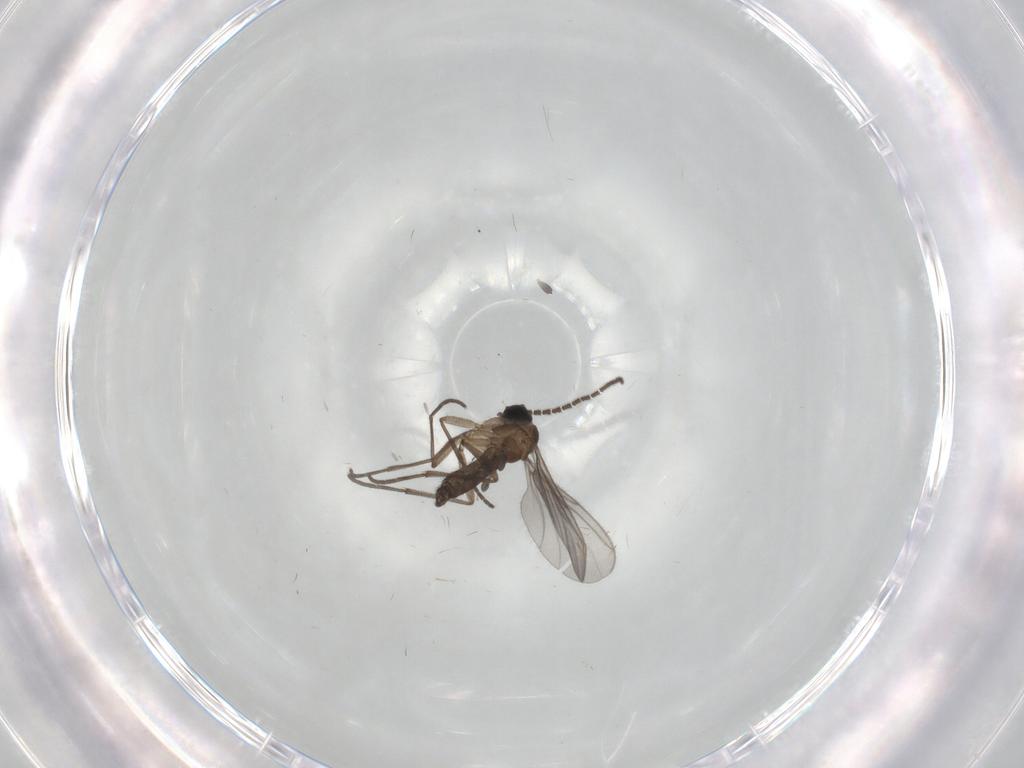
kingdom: Animalia
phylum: Arthropoda
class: Insecta
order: Diptera
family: Sciaridae
